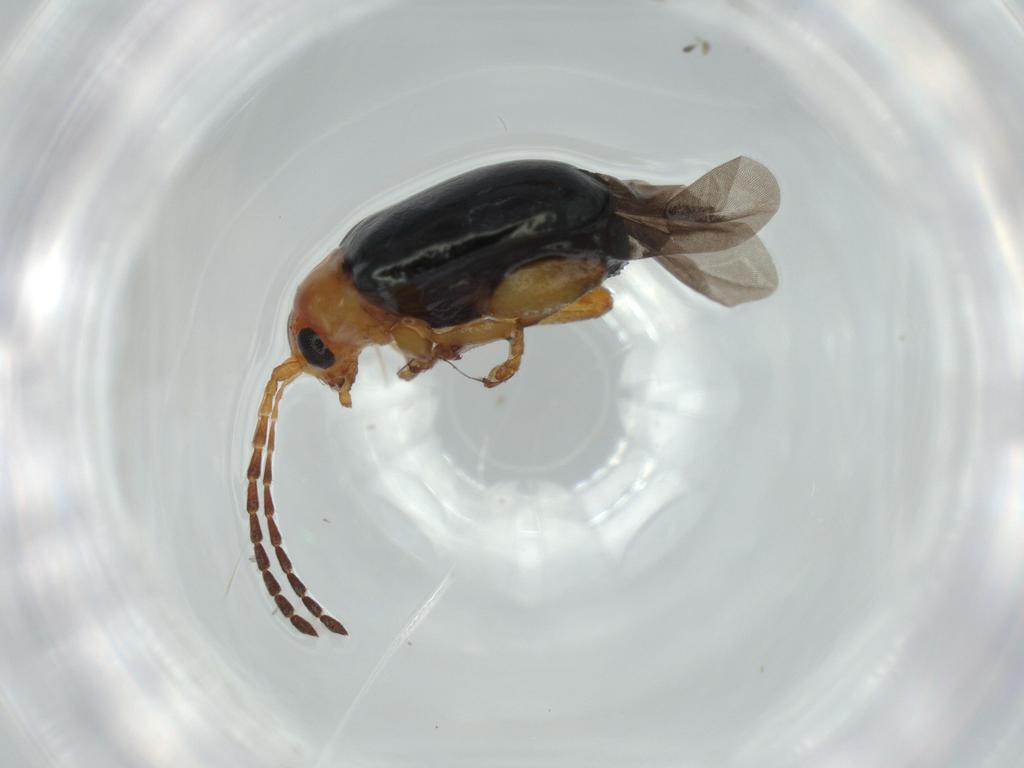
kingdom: Animalia
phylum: Arthropoda
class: Insecta
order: Coleoptera
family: Chrysomelidae
